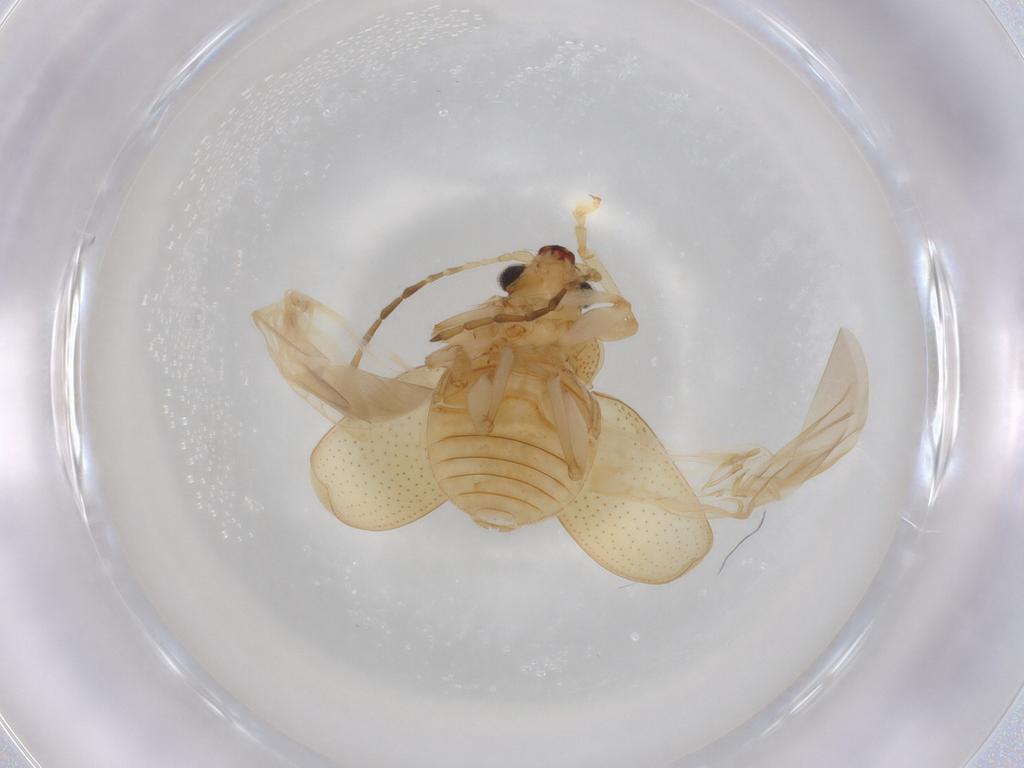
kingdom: Animalia
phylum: Arthropoda
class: Insecta
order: Coleoptera
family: Chrysomelidae
